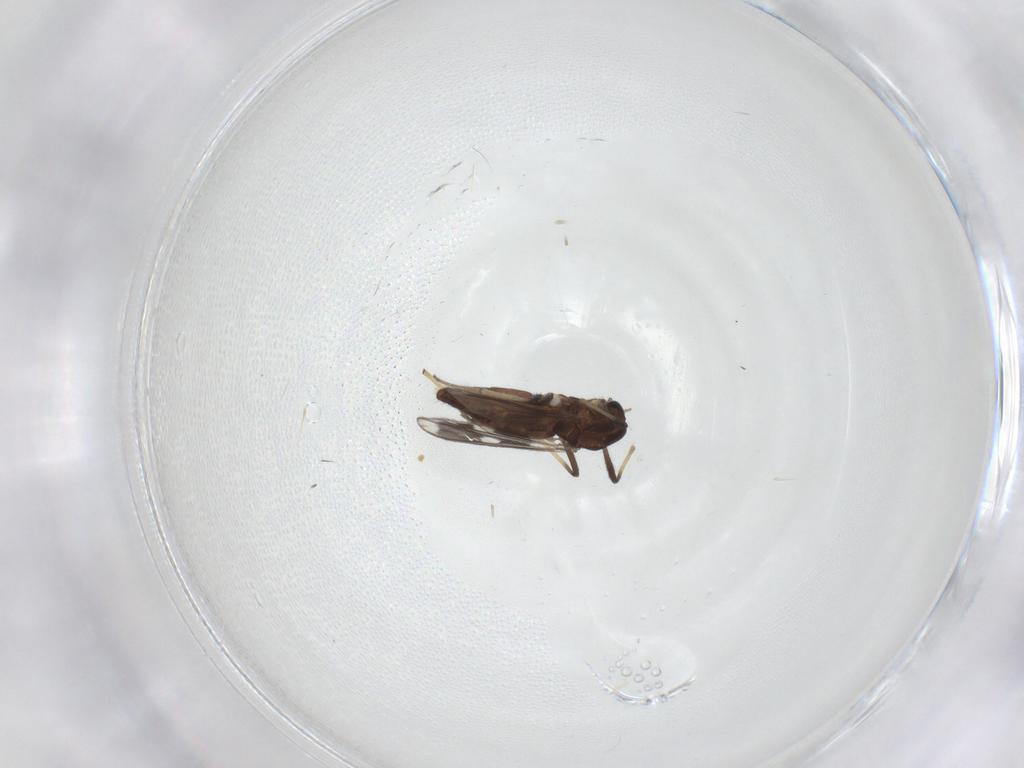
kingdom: Animalia
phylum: Arthropoda
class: Insecta
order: Diptera
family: Chironomidae
